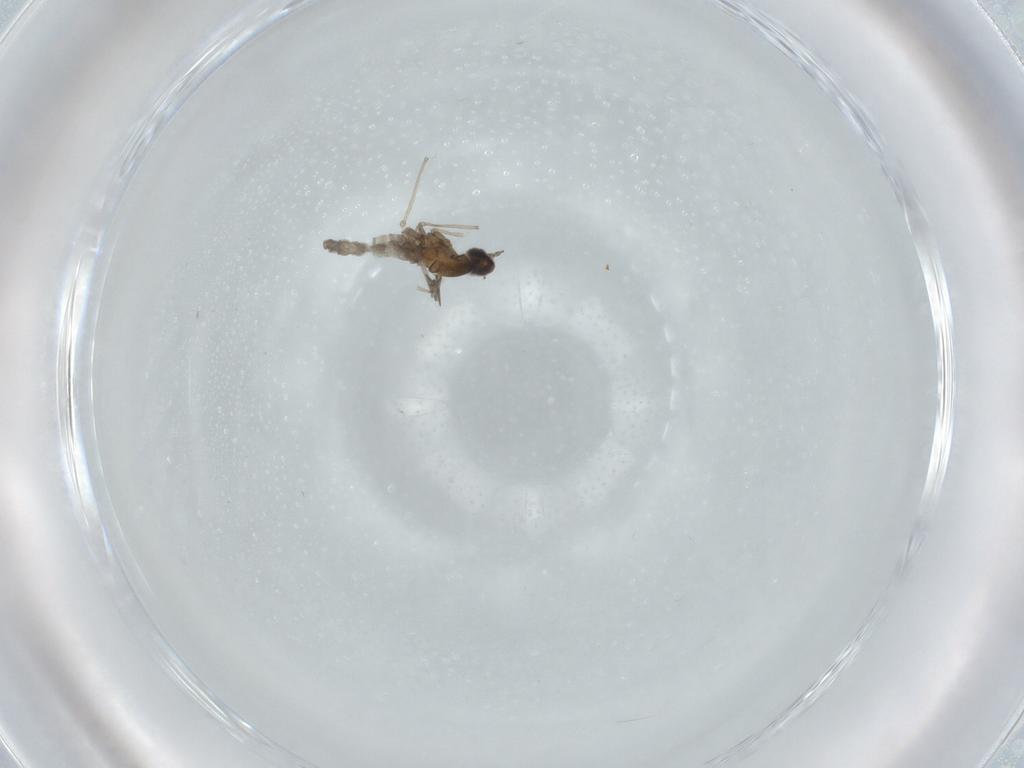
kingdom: Animalia
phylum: Arthropoda
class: Insecta
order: Diptera
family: Cecidomyiidae
